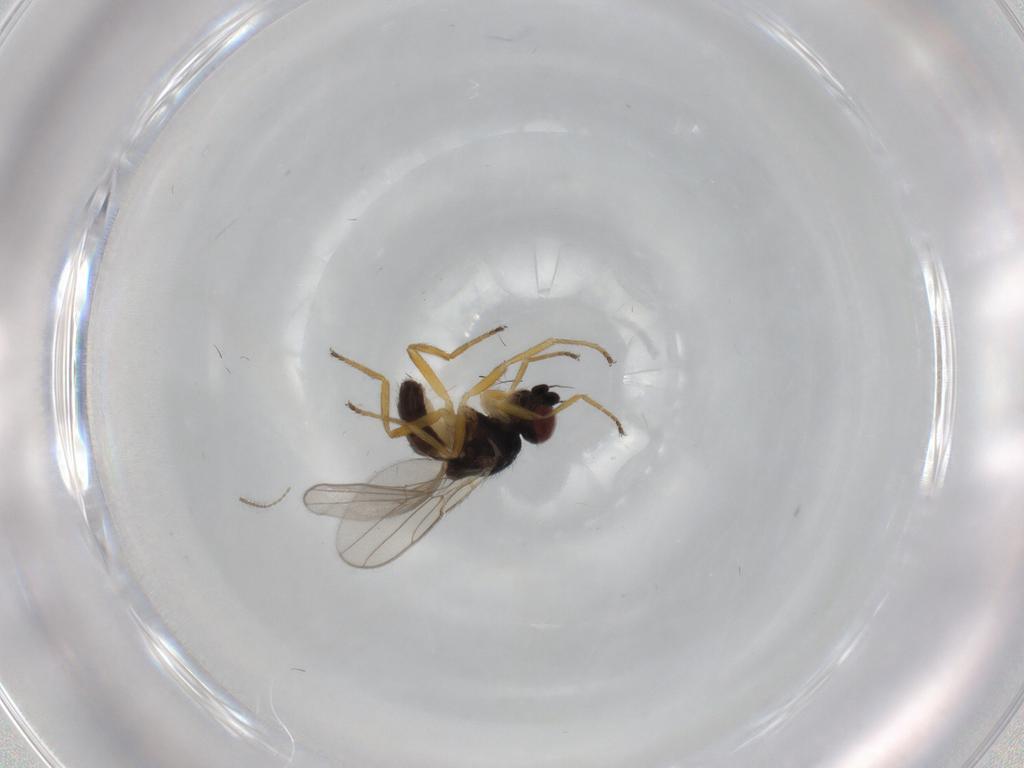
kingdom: Animalia
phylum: Arthropoda
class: Insecta
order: Diptera
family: Chloropidae
